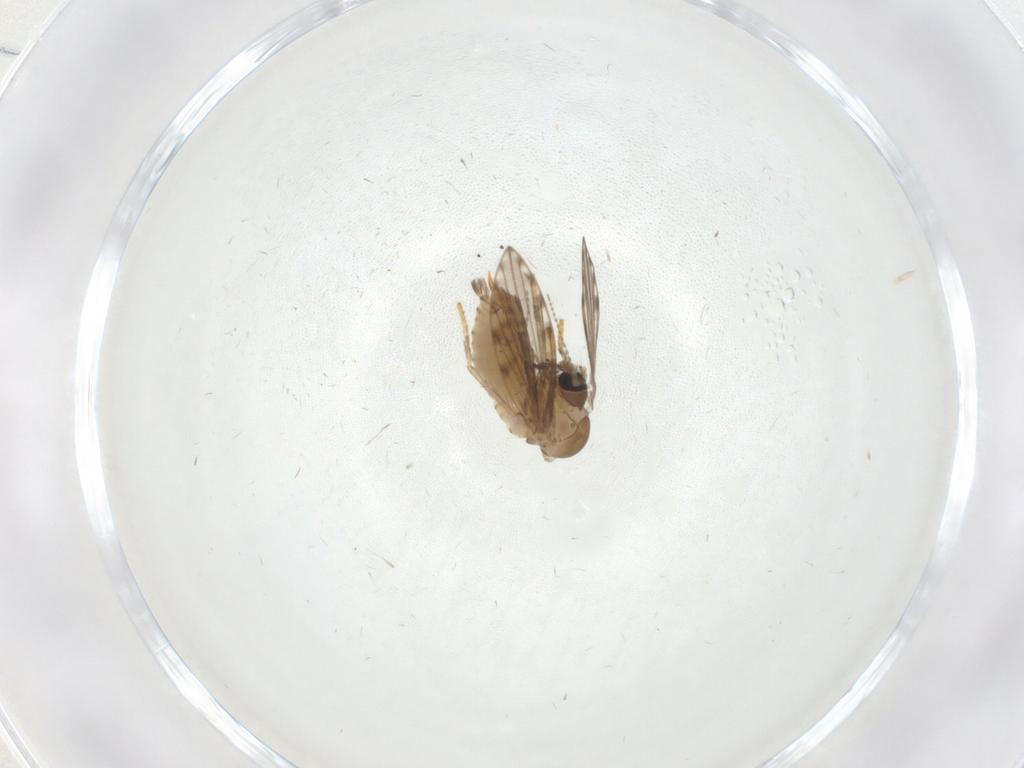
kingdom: Animalia
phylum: Arthropoda
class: Insecta
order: Diptera
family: Psychodidae
